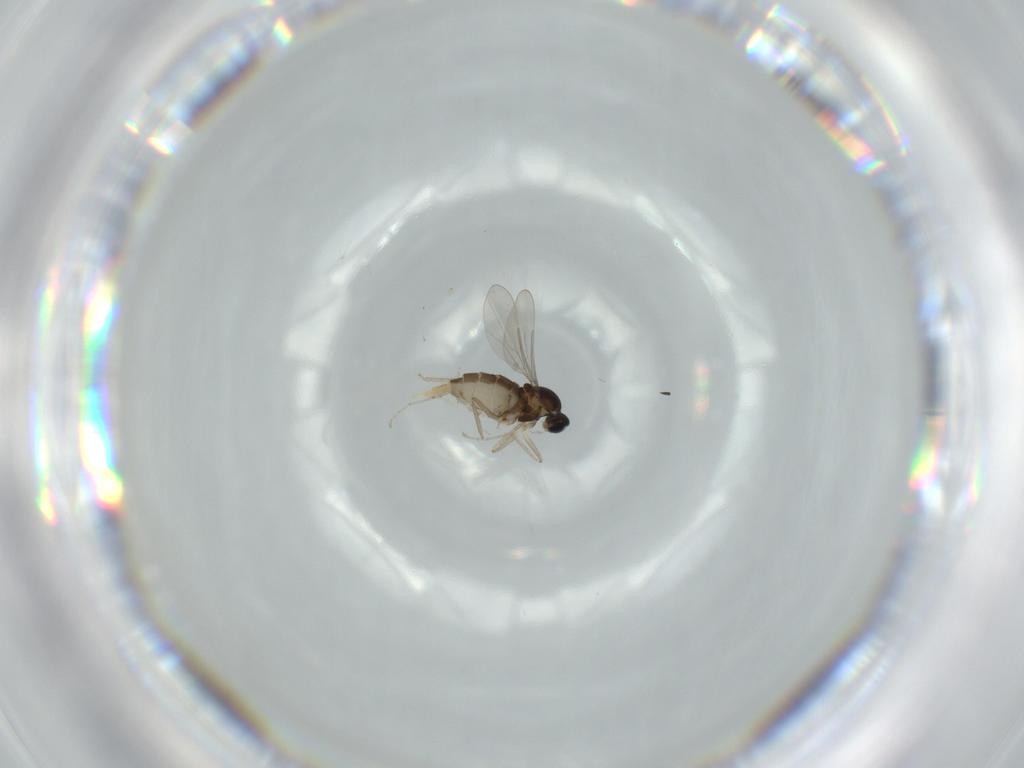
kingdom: Animalia
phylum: Arthropoda
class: Insecta
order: Diptera
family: Cecidomyiidae
